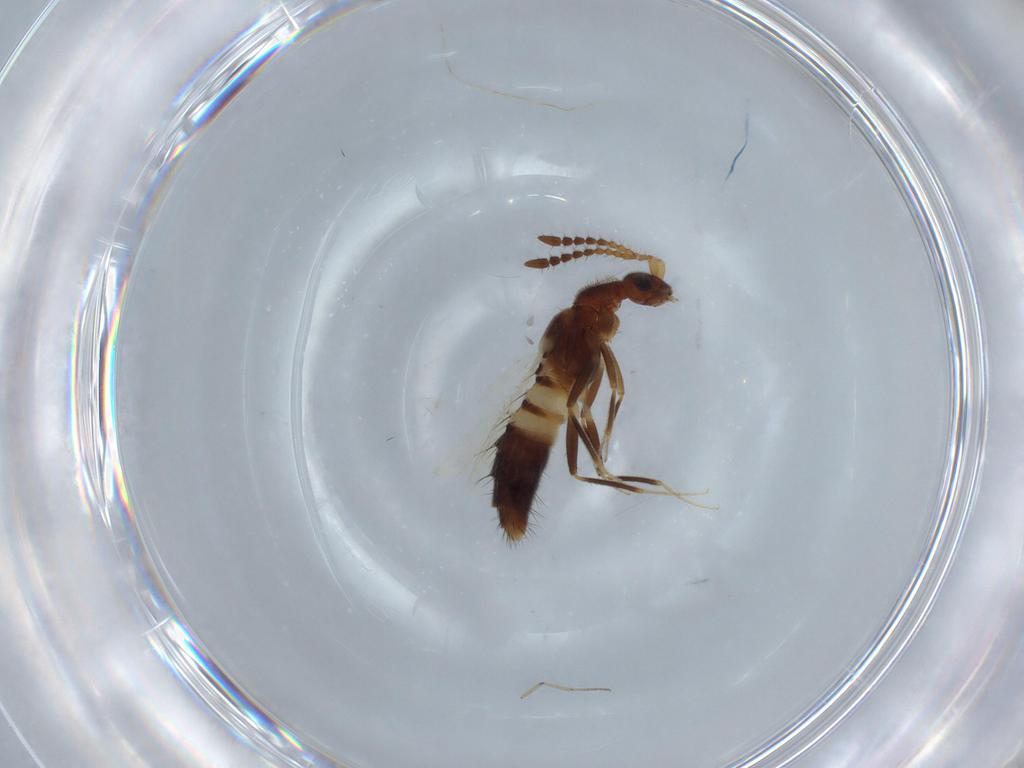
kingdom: Animalia
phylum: Arthropoda
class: Insecta
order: Coleoptera
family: Staphylinidae
